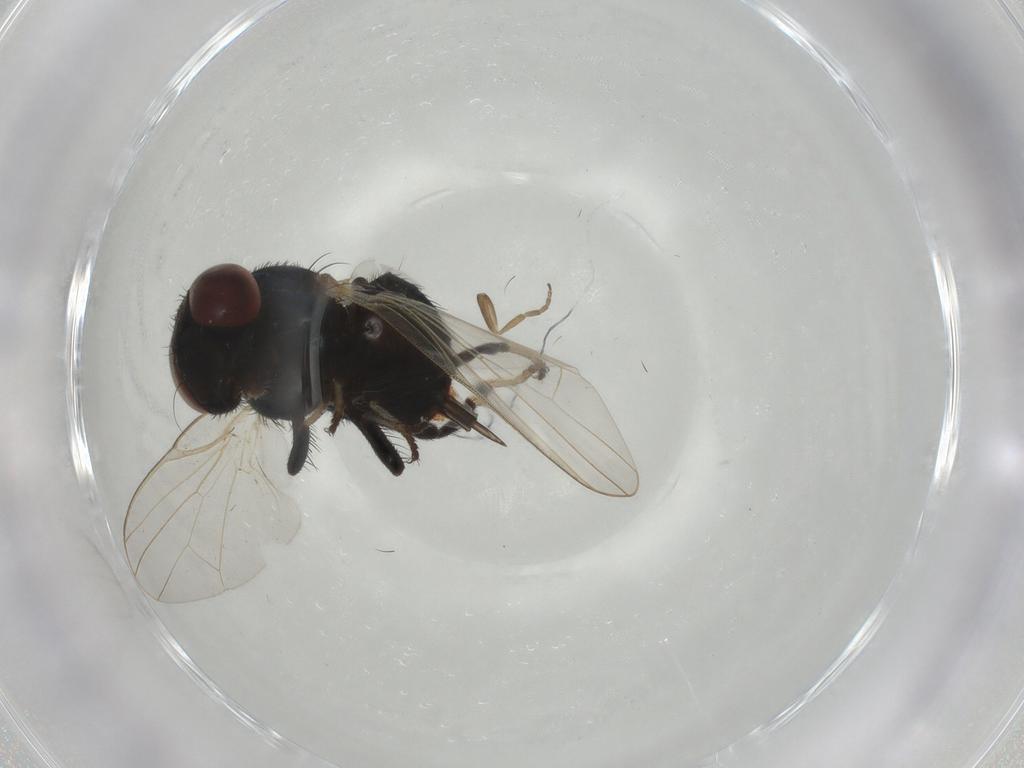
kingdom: Animalia
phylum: Arthropoda
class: Insecta
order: Diptera
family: Phoridae
